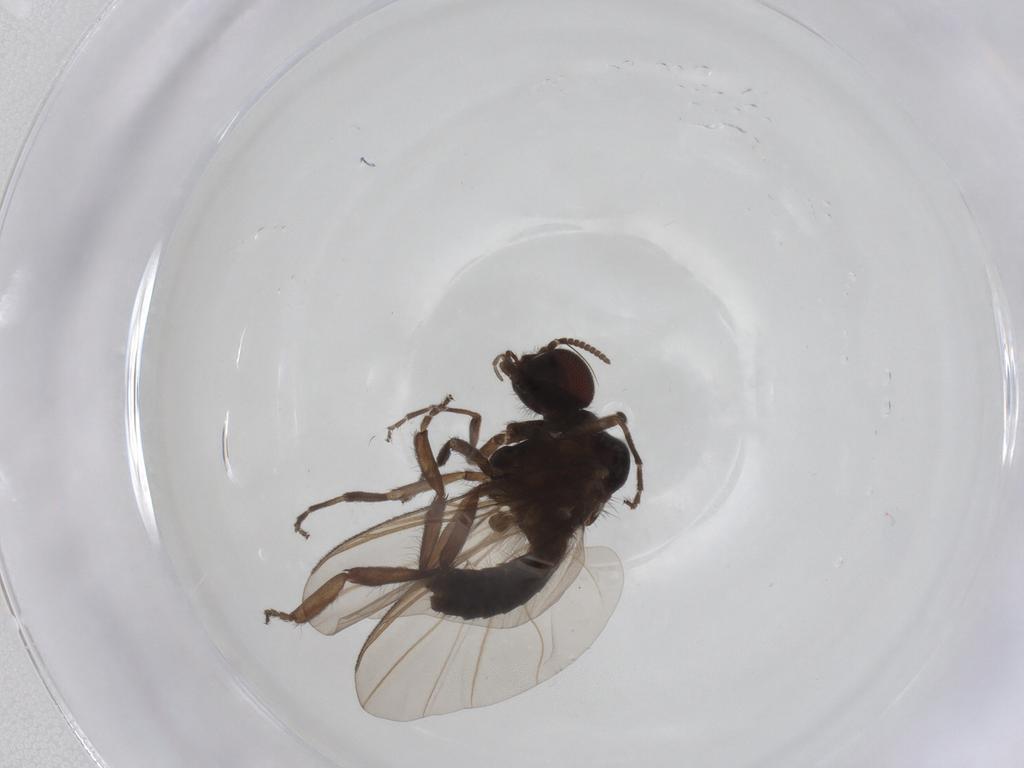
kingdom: Animalia
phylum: Arthropoda
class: Insecta
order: Diptera
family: Simuliidae
